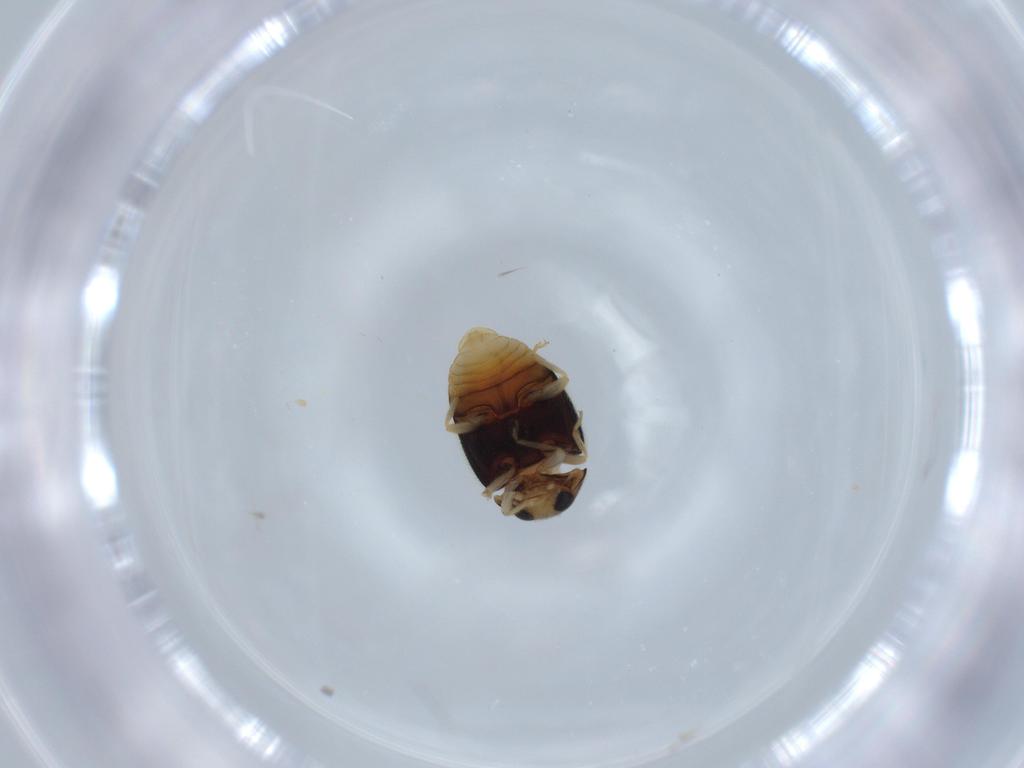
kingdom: Animalia
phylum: Arthropoda
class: Insecta
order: Coleoptera
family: Coccinellidae
